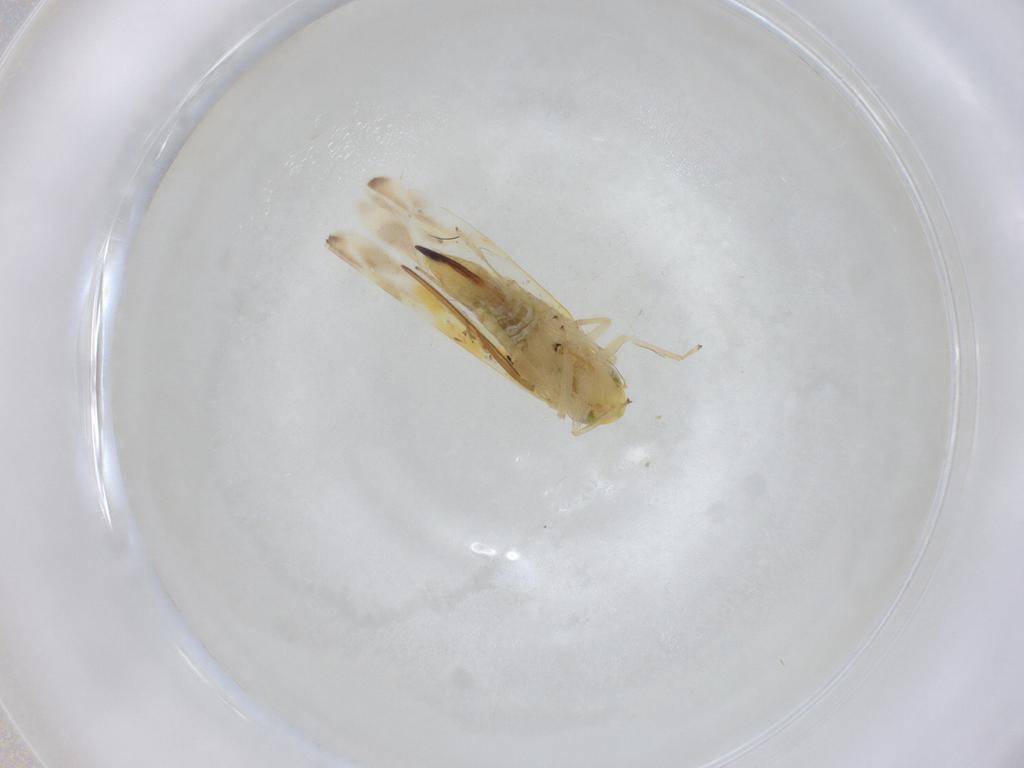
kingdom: Animalia
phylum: Arthropoda
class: Insecta
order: Hemiptera
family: Cicadellidae
